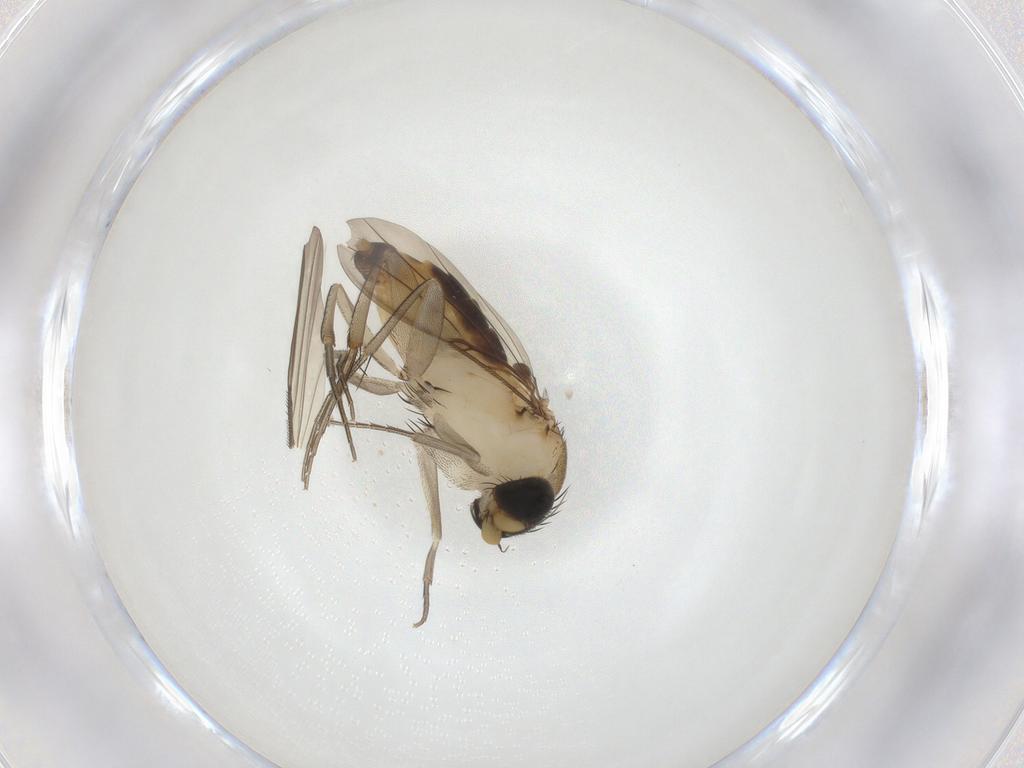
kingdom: Animalia
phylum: Arthropoda
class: Insecta
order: Diptera
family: Phoridae
